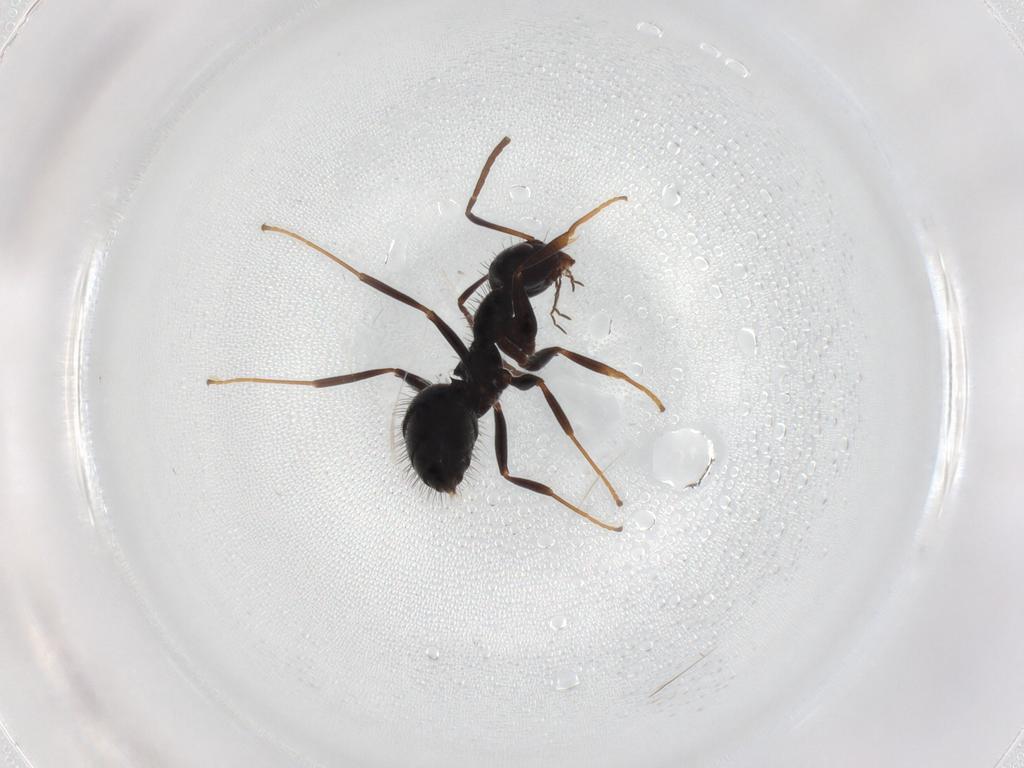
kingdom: Animalia
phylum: Arthropoda
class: Insecta
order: Hymenoptera
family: Formicidae
